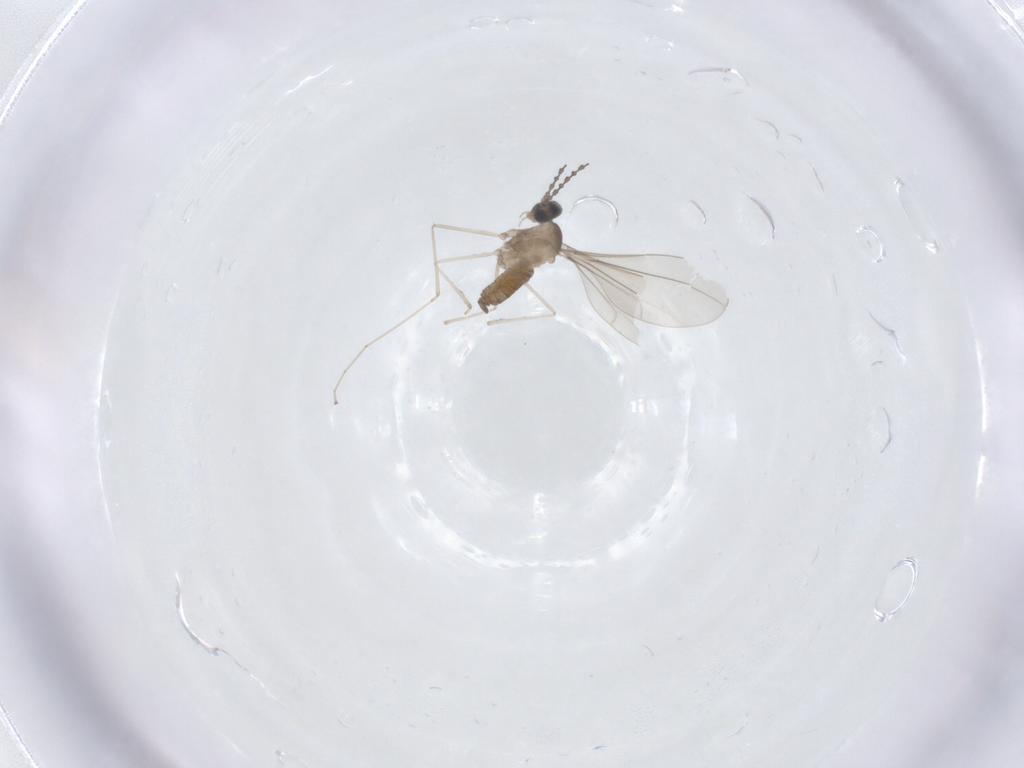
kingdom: Animalia
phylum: Arthropoda
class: Insecta
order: Diptera
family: Cecidomyiidae
